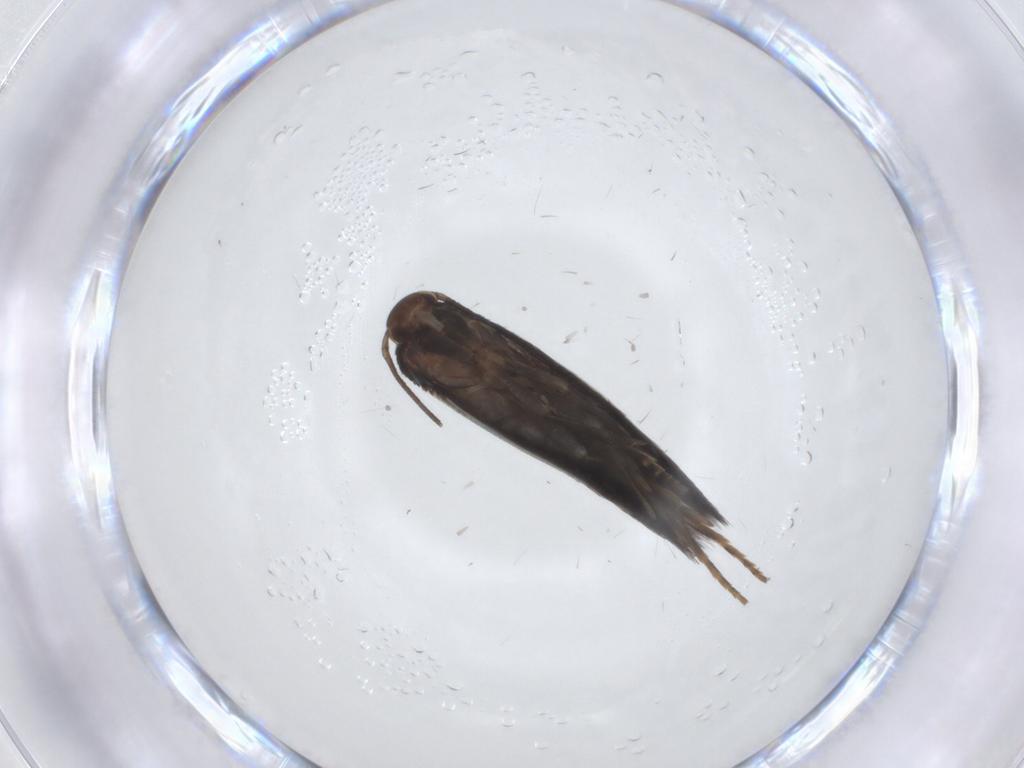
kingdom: Animalia
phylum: Arthropoda
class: Insecta
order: Lepidoptera
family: Elachistidae
